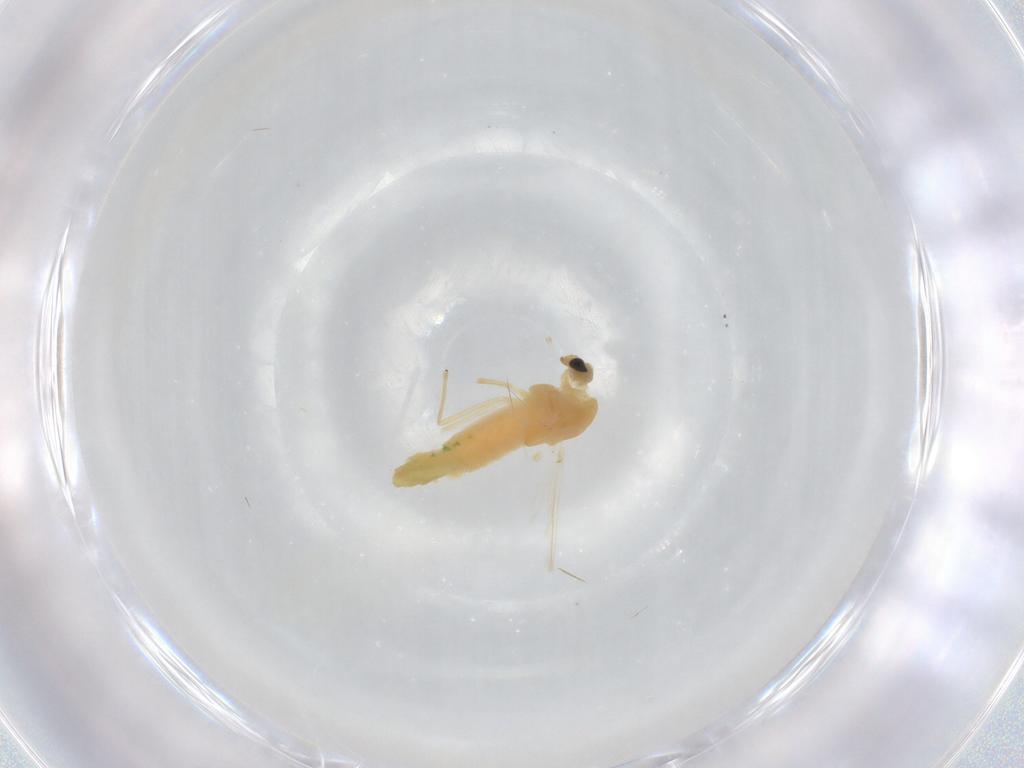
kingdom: Animalia
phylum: Arthropoda
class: Insecta
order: Diptera
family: Chironomidae
